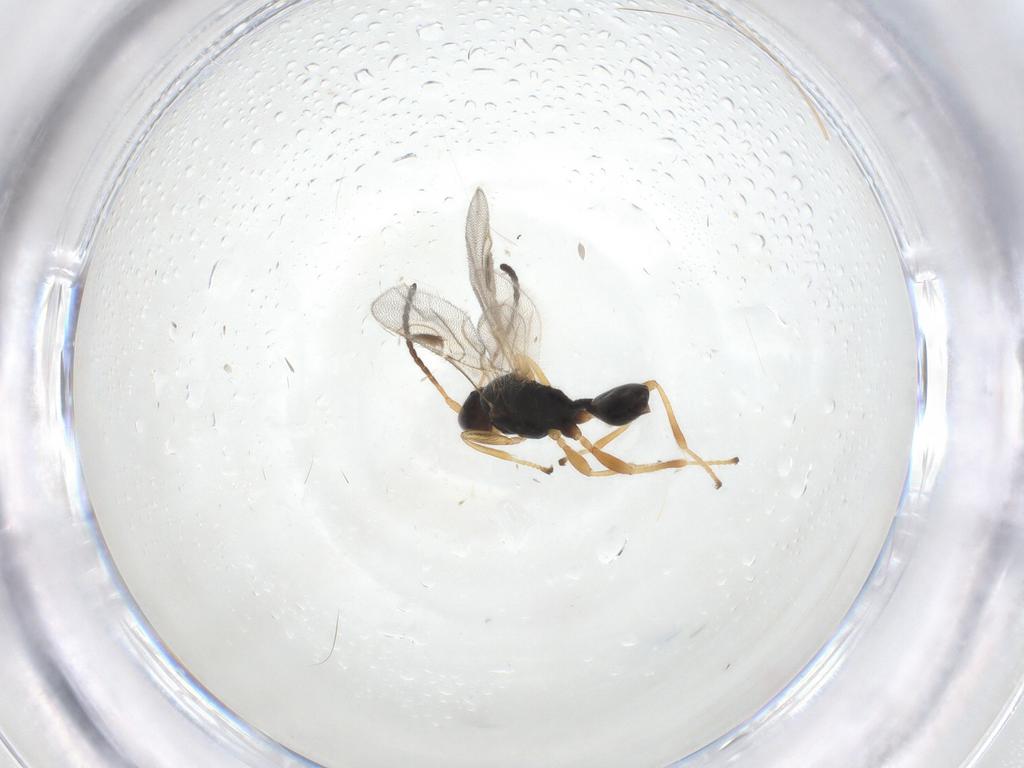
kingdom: Animalia
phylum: Arthropoda
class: Insecta
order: Hymenoptera
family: Braconidae
